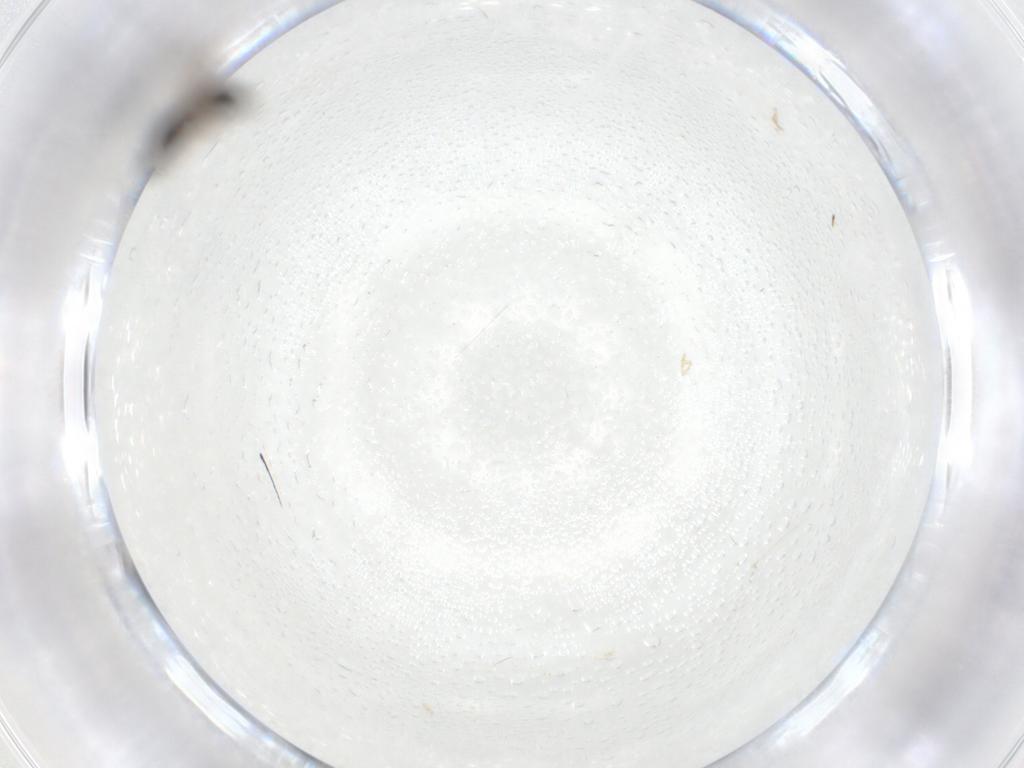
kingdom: Animalia
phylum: Arthropoda
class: Insecta
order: Hymenoptera
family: Diapriidae
